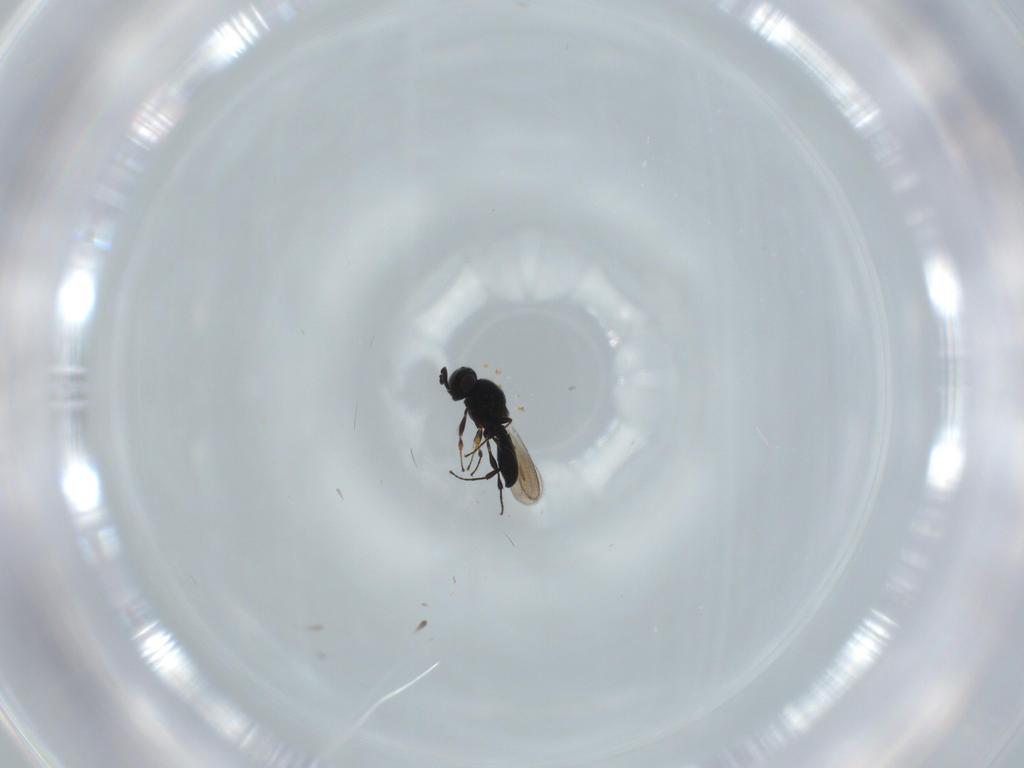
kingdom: Animalia
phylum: Arthropoda
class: Insecta
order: Hymenoptera
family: Platygastridae
